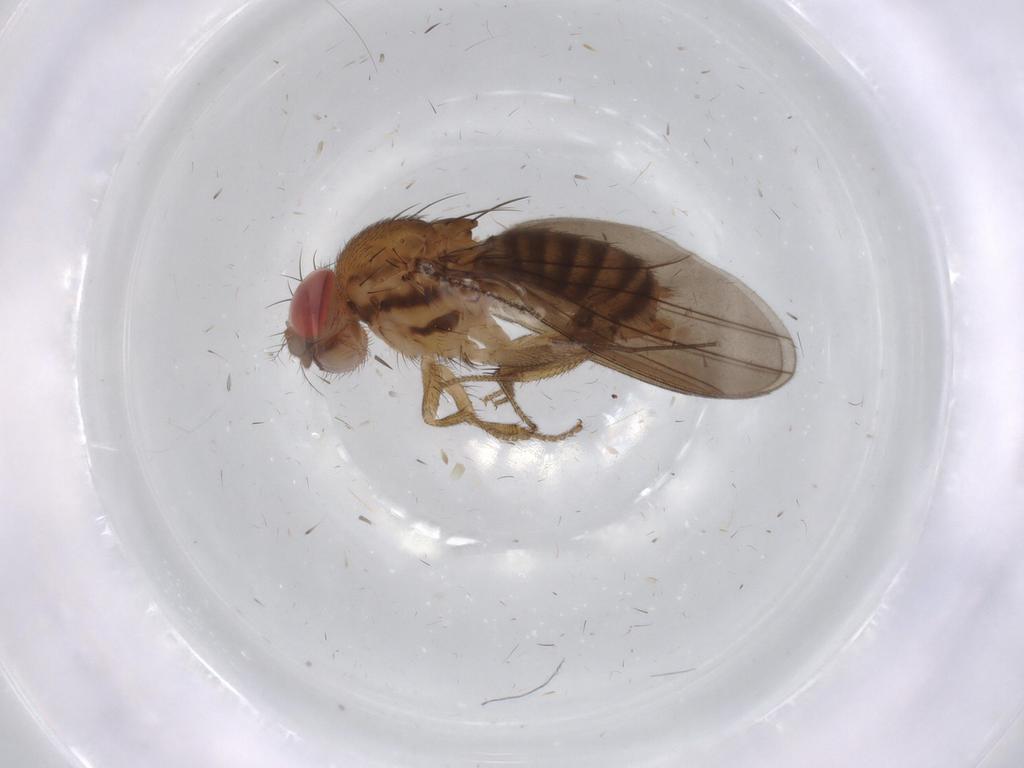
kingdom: Animalia
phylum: Arthropoda
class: Insecta
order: Diptera
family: Drosophilidae
